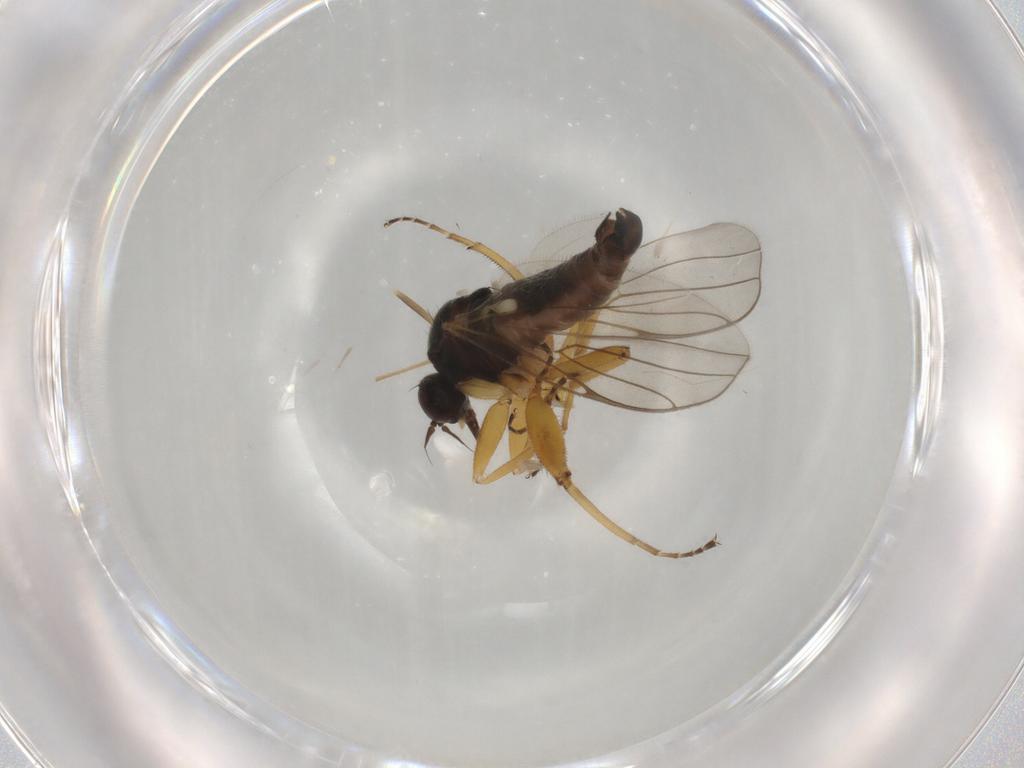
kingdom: Animalia
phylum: Arthropoda
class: Insecta
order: Diptera
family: Hybotidae
